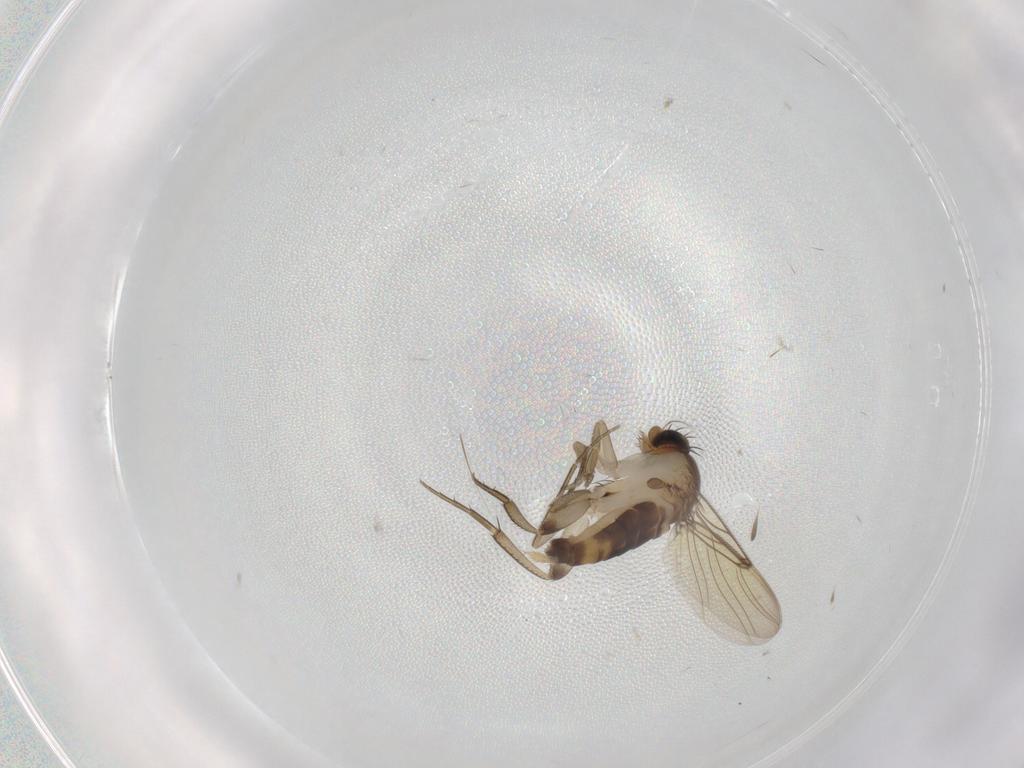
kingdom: Animalia
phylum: Arthropoda
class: Insecta
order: Diptera
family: Phoridae
